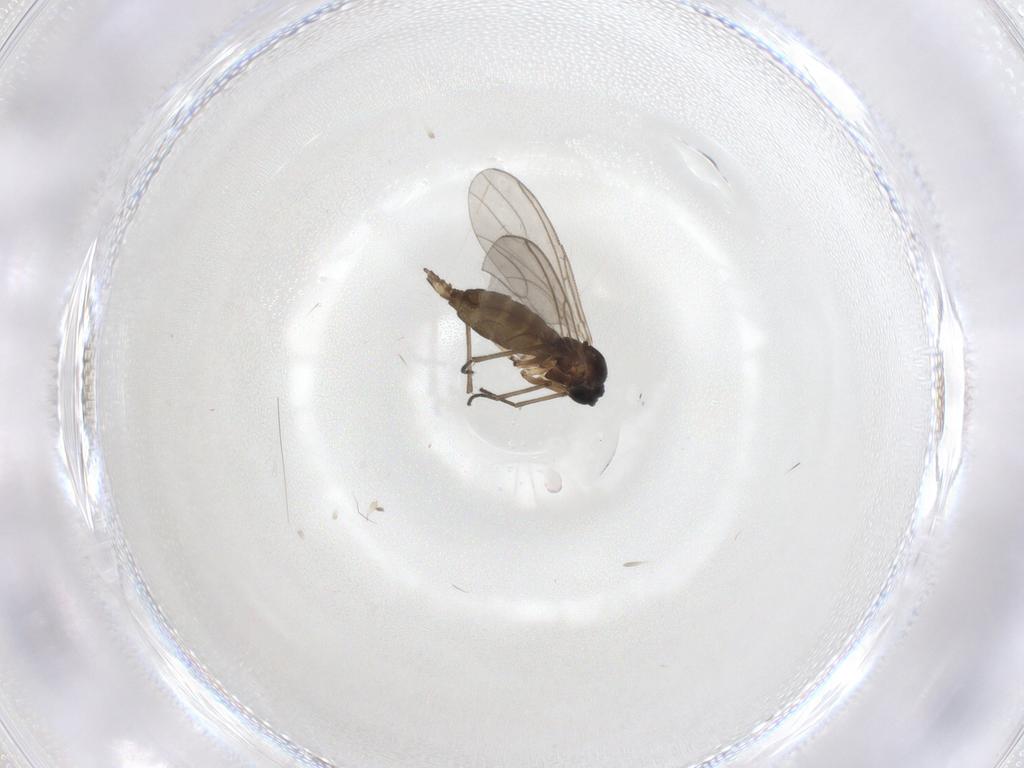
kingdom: Animalia
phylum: Arthropoda
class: Insecta
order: Diptera
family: Sciaridae
